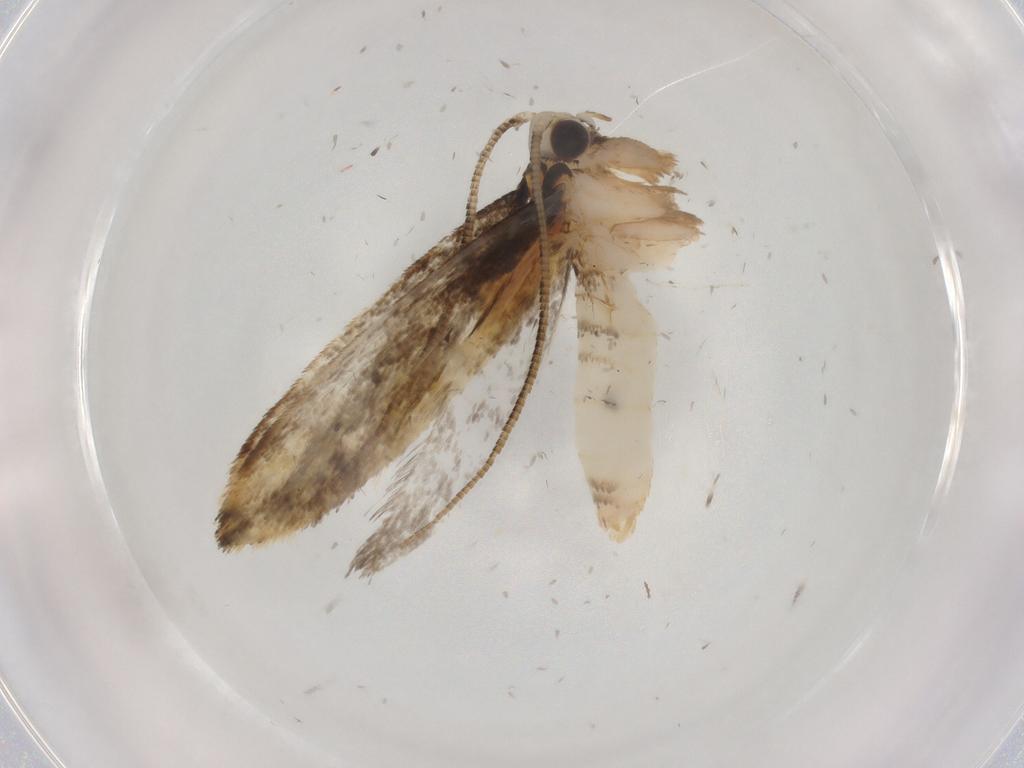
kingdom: Animalia
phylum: Arthropoda
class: Insecta
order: Lepidoptera
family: Tineidae
